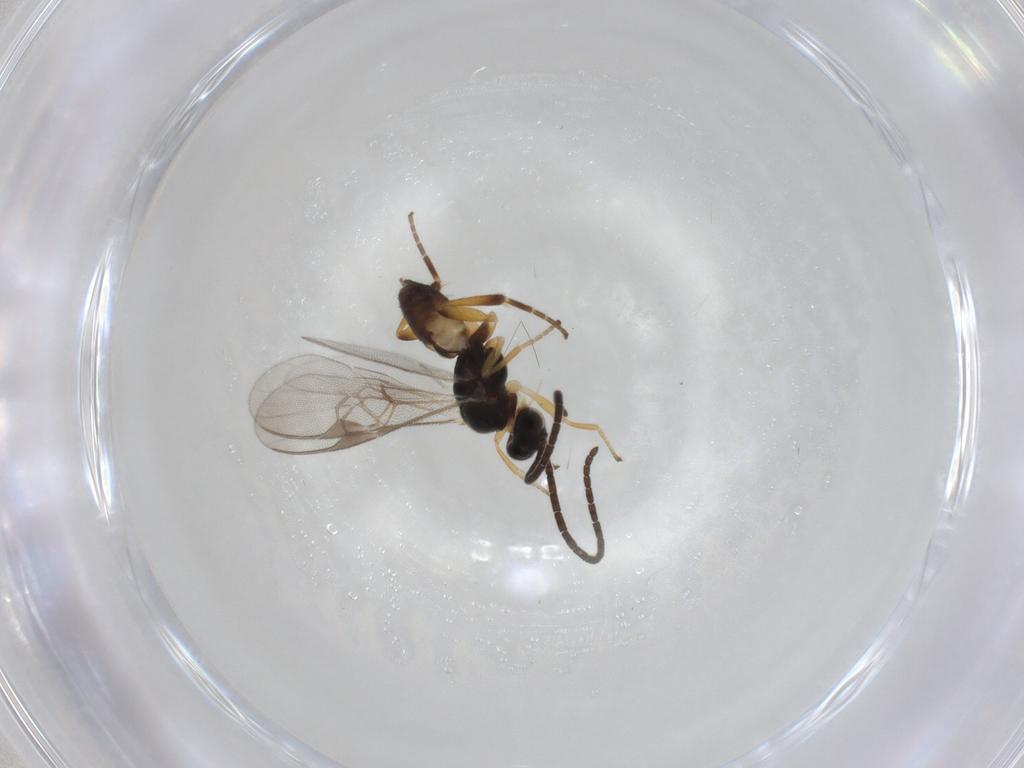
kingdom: Animalia
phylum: Arthropoda
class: Insecta
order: Hymenoptera
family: Braconidae
